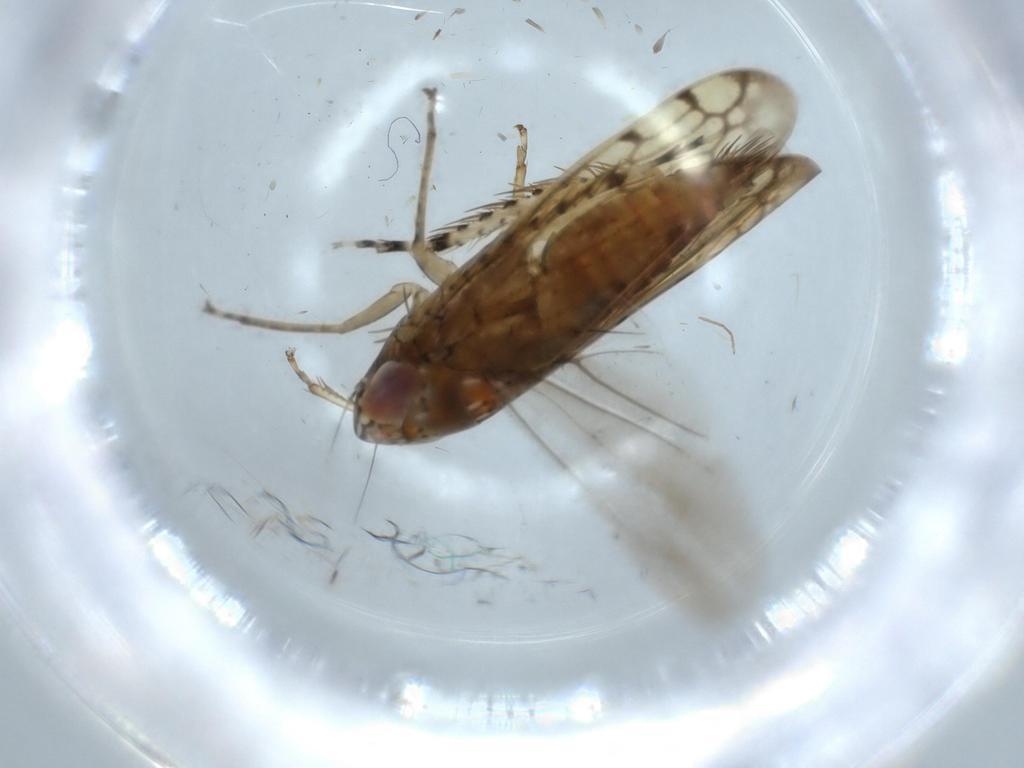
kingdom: Animalia
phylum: Arthropoda
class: Insecta
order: Hemiptera
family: Cicadellidae
